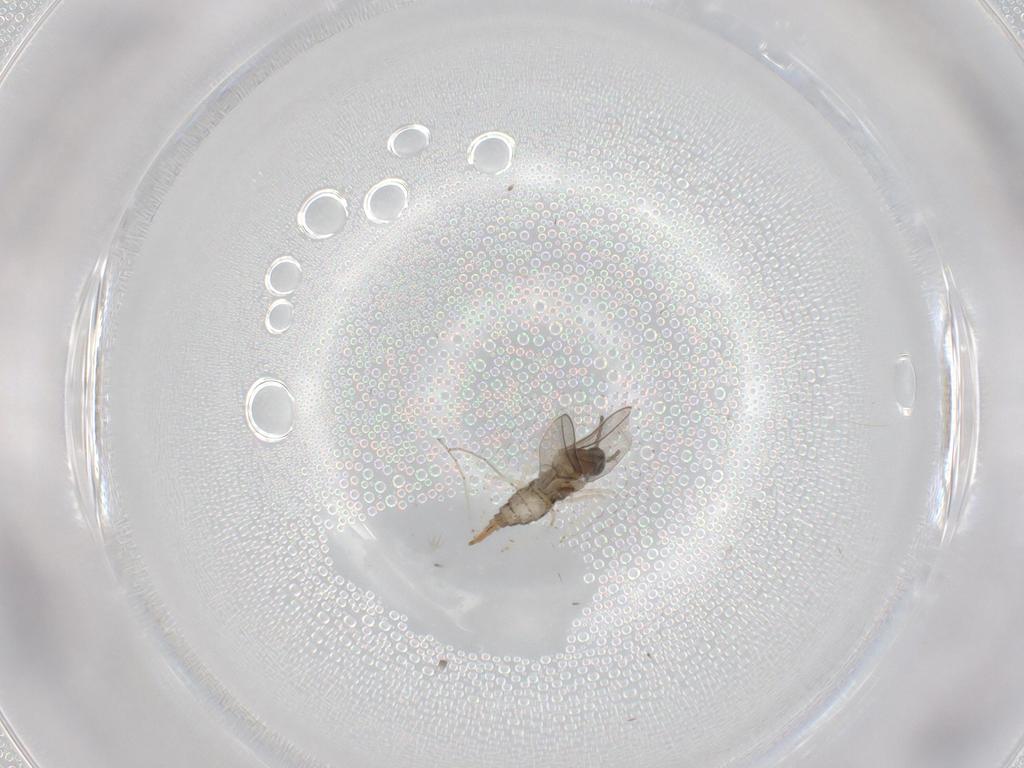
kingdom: Animalia
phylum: Arthropoda
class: Insecta
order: Diptera
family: Cecidomyiidae
